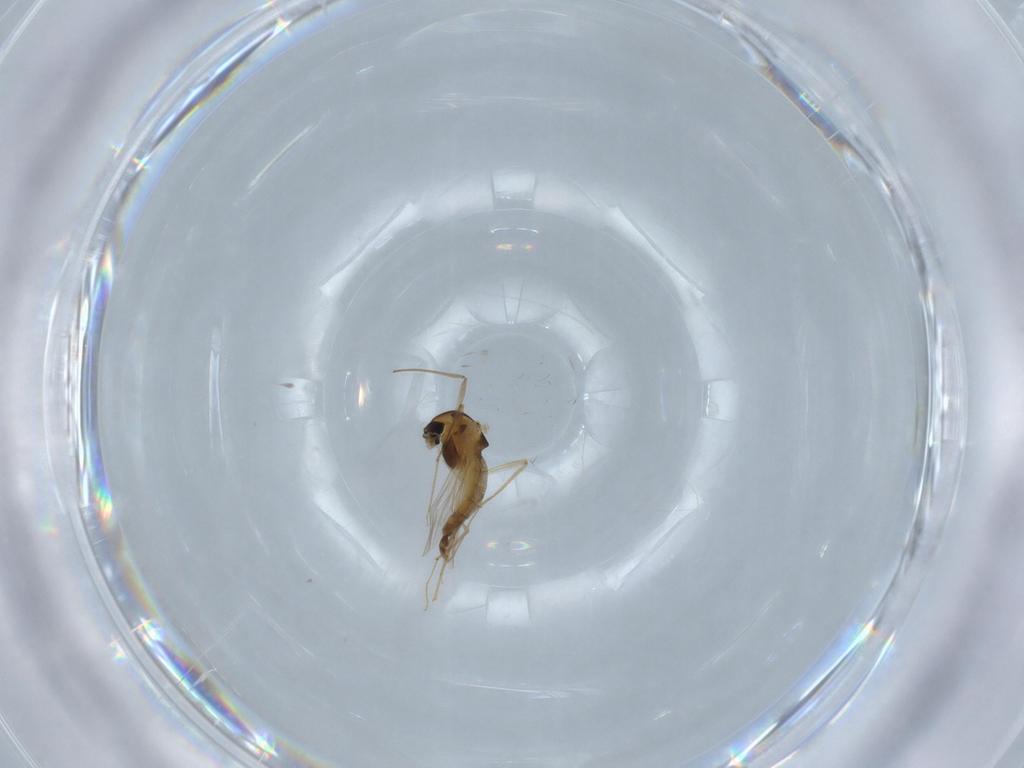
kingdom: Animalia
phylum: Arthropoda
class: Insecta
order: Diptera
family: Chironomidae
